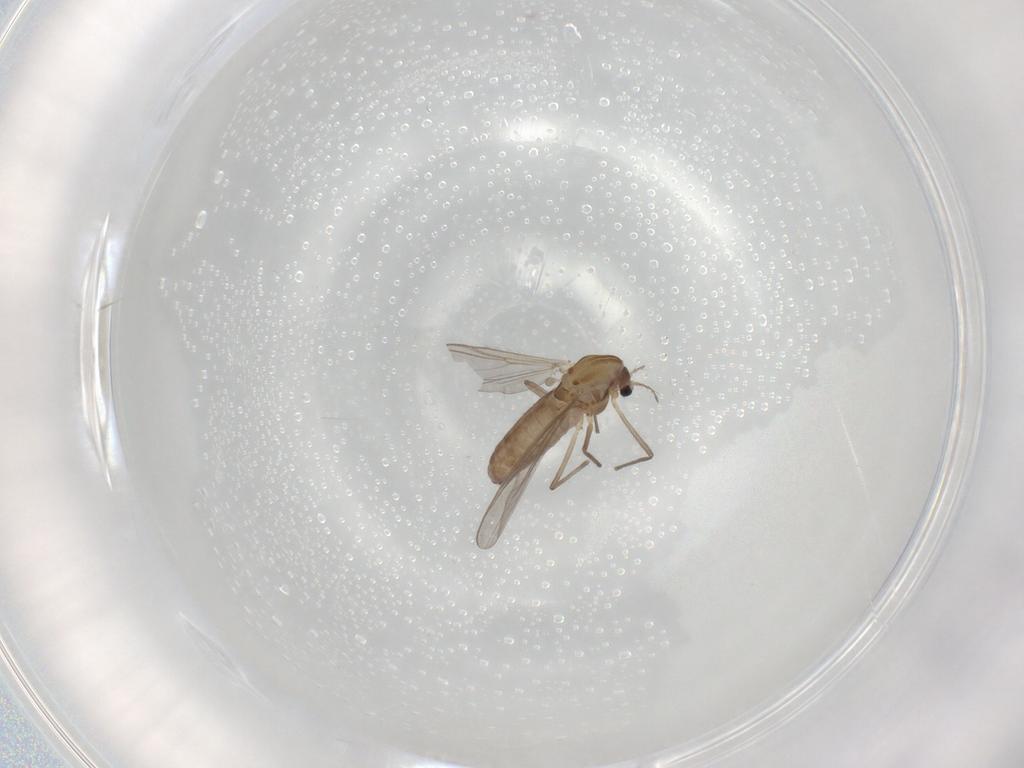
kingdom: Animalia
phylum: Arthropoda
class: Insecta
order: Diptera
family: Chironomidae
